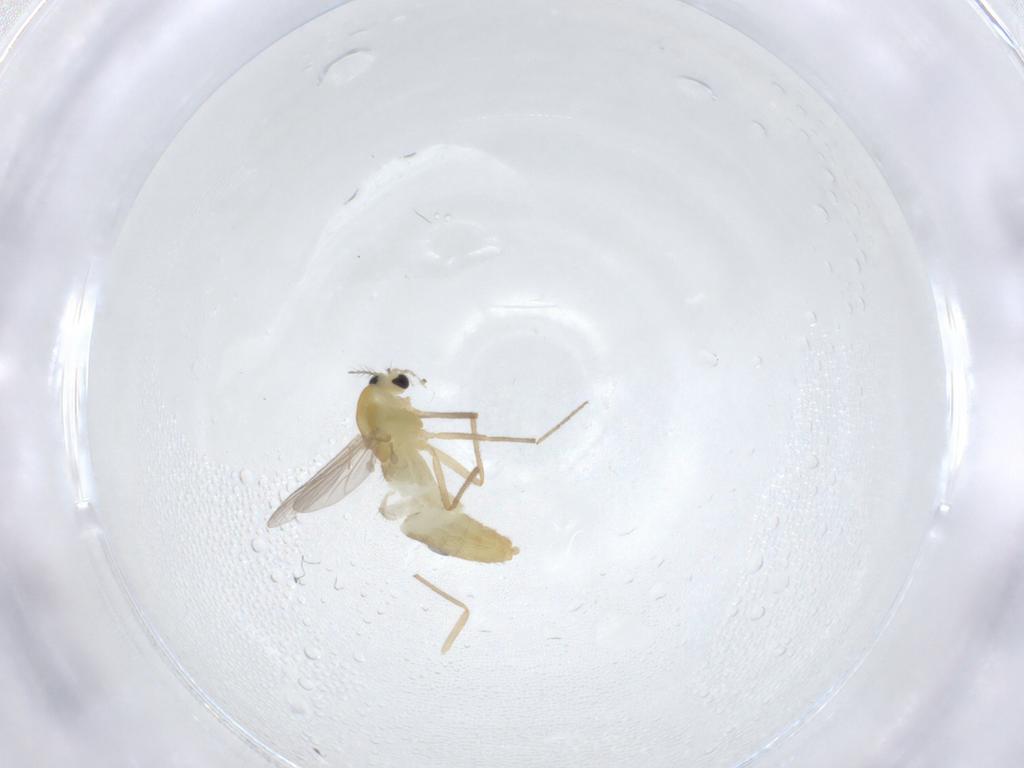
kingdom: Animalia
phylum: Arthropoda
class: Insecta
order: Diptera
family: Chironomidae
